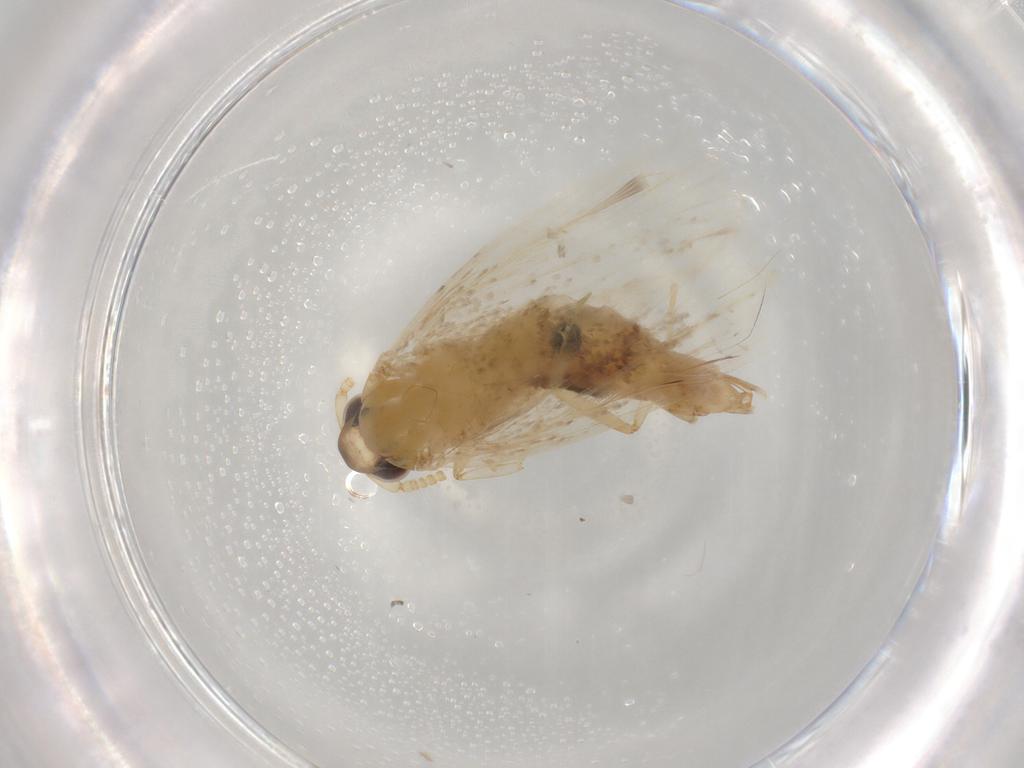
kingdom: Animalia
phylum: Arthropoda
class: Insecta
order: Lepidoptera
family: Lecithoceridae
